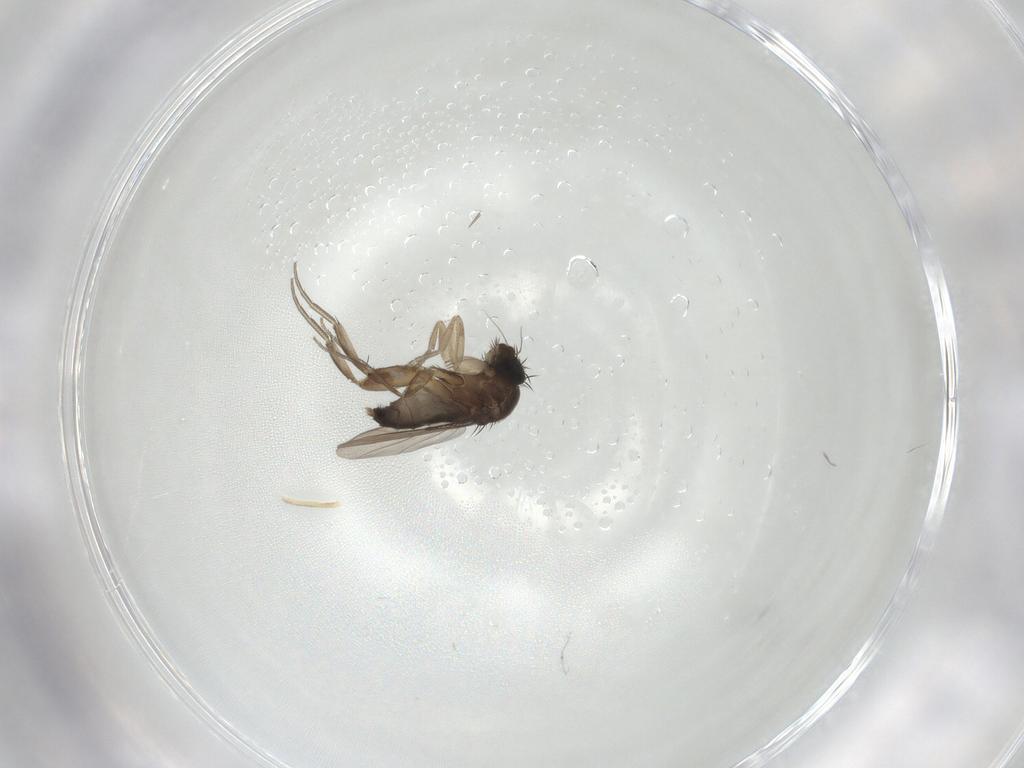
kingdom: Animalia
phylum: Arthropoda
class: Insecta
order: Diptera
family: Phoridae
